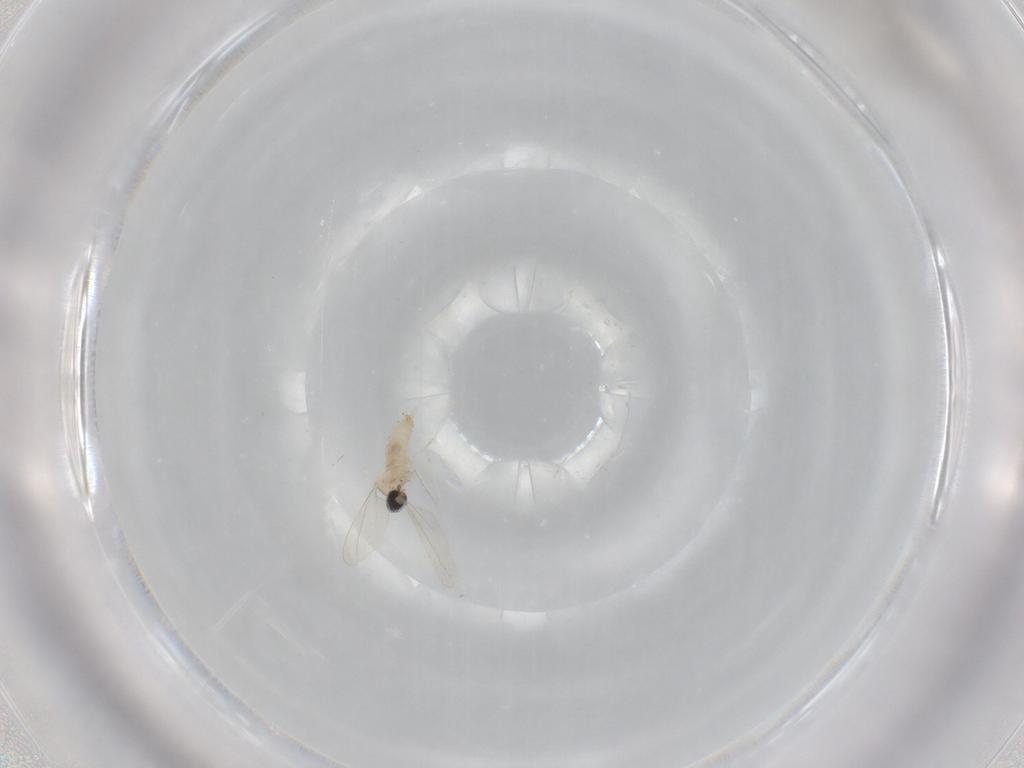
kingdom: Animalia
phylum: Arthropoda
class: Insecta
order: Diptera
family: Cecidomyiidae
